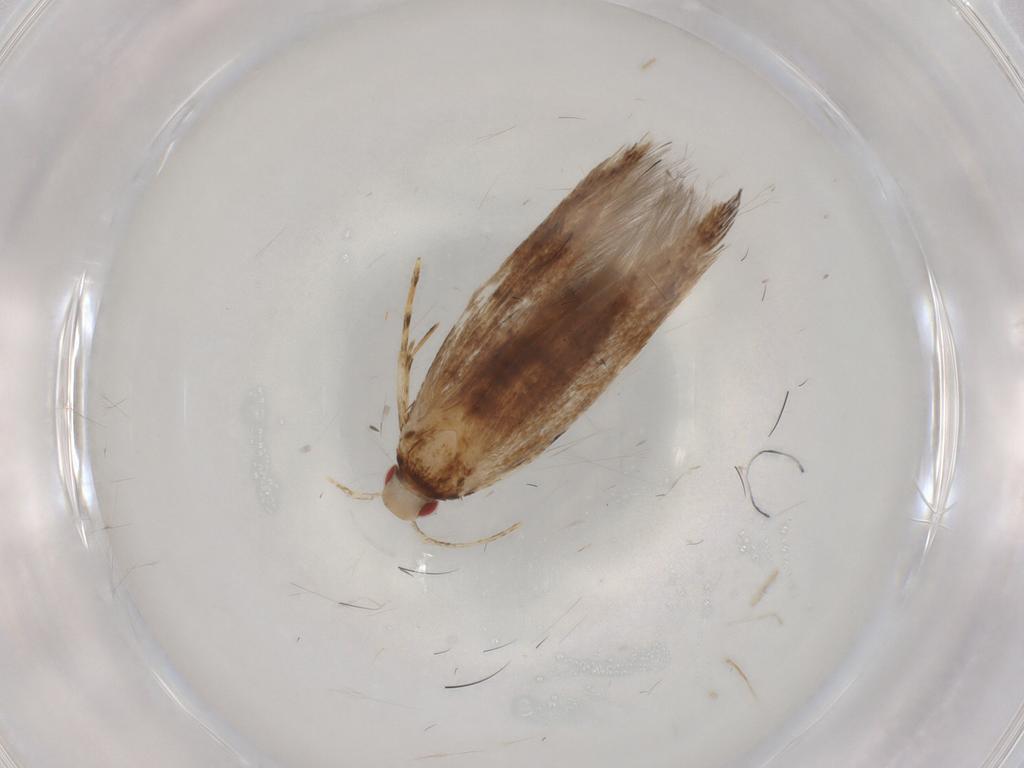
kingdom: Animalia
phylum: Arthropoda
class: Insecta
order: Lepidoptera
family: Cosmopterigidae
